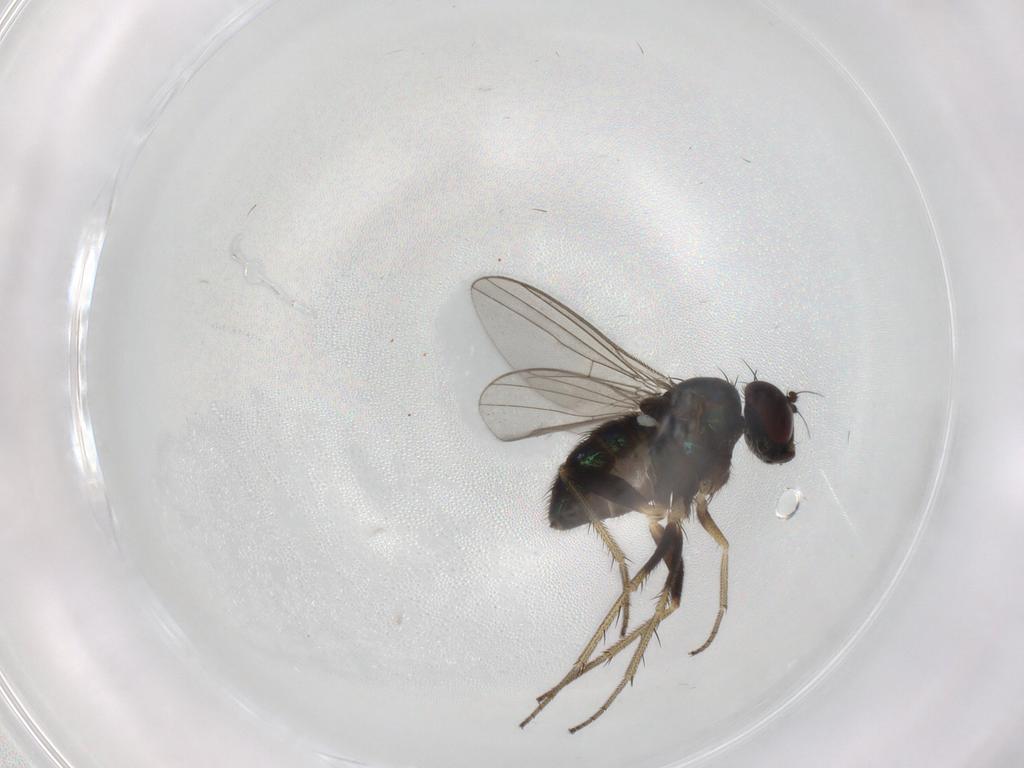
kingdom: Animalia
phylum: Arthropoda
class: Insecta
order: Diptera
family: Dolichopodidae
